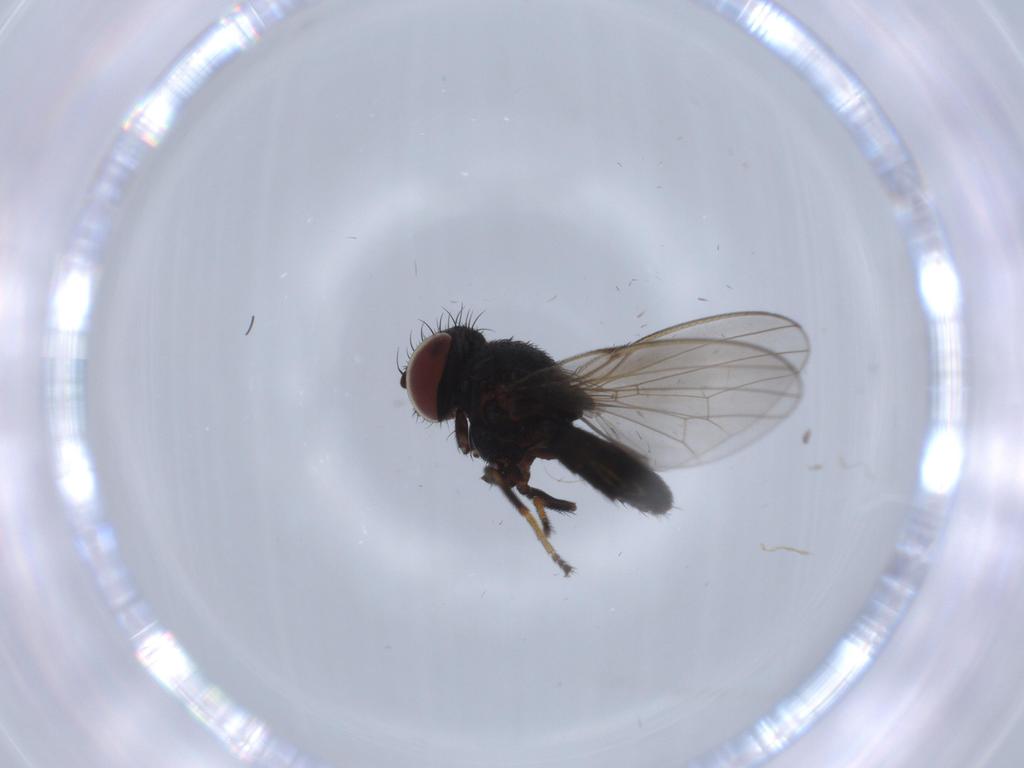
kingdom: Animalia
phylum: Arthropoda
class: Insecta
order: Diptera
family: Milichiidae
